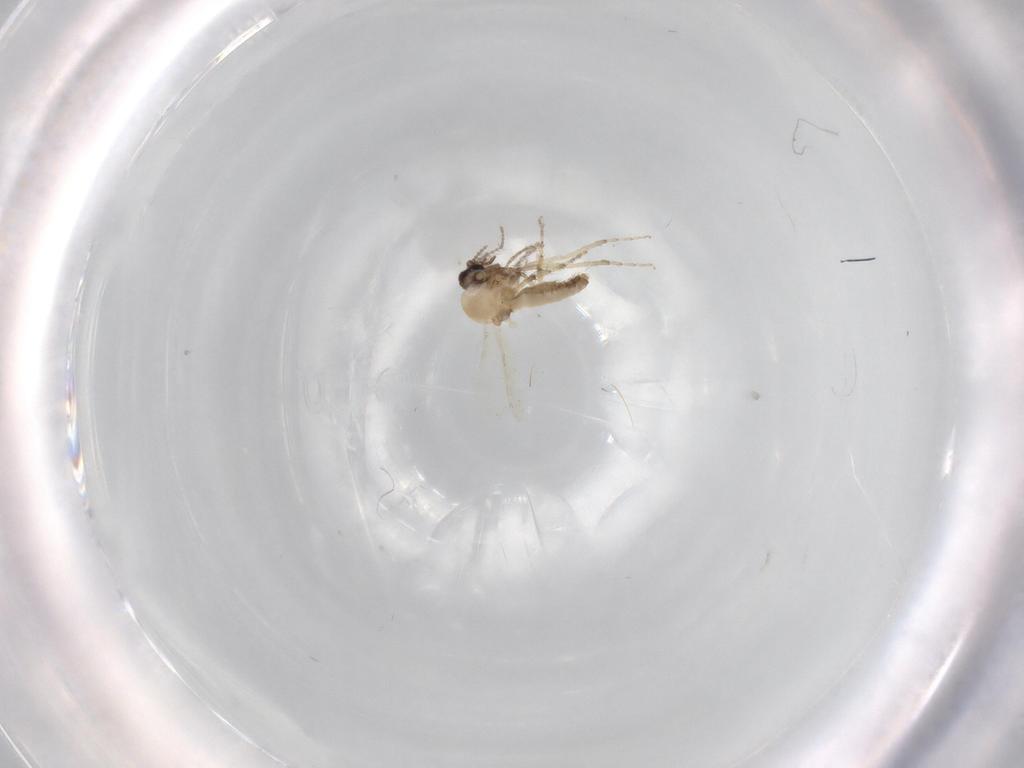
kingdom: Animalia
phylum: Arthropoda
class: Insecta
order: Diptera
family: Ceratopogonidae
